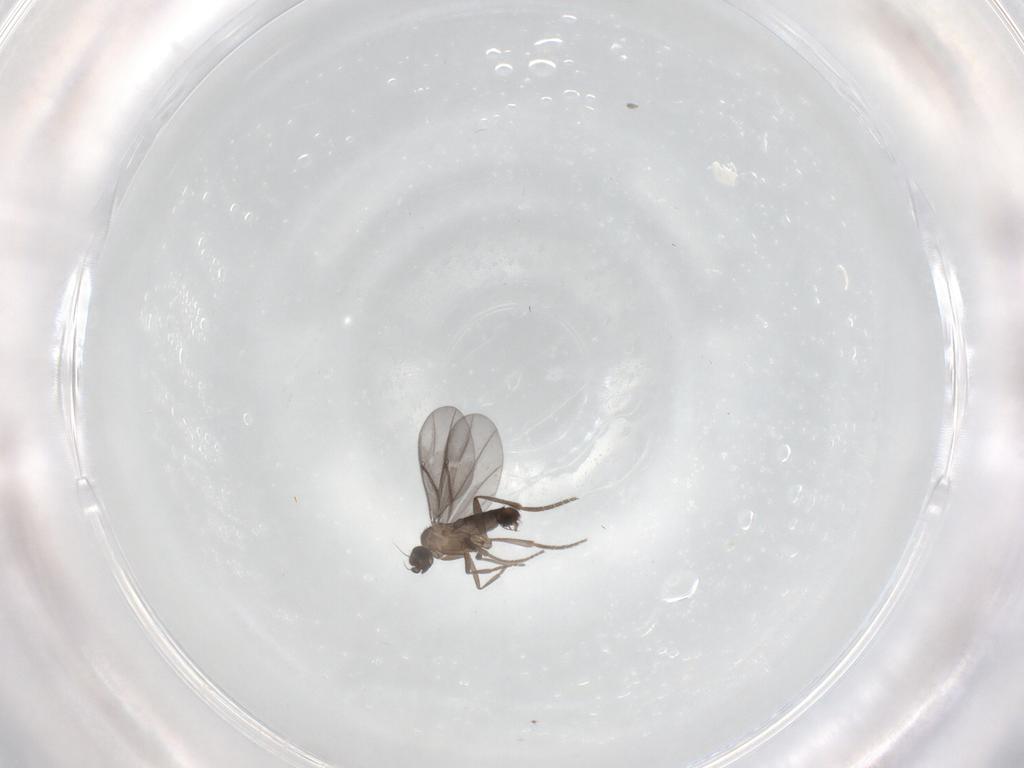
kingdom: Animalia
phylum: Arthropoda
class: Insecta
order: Diptera
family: Phoridae
